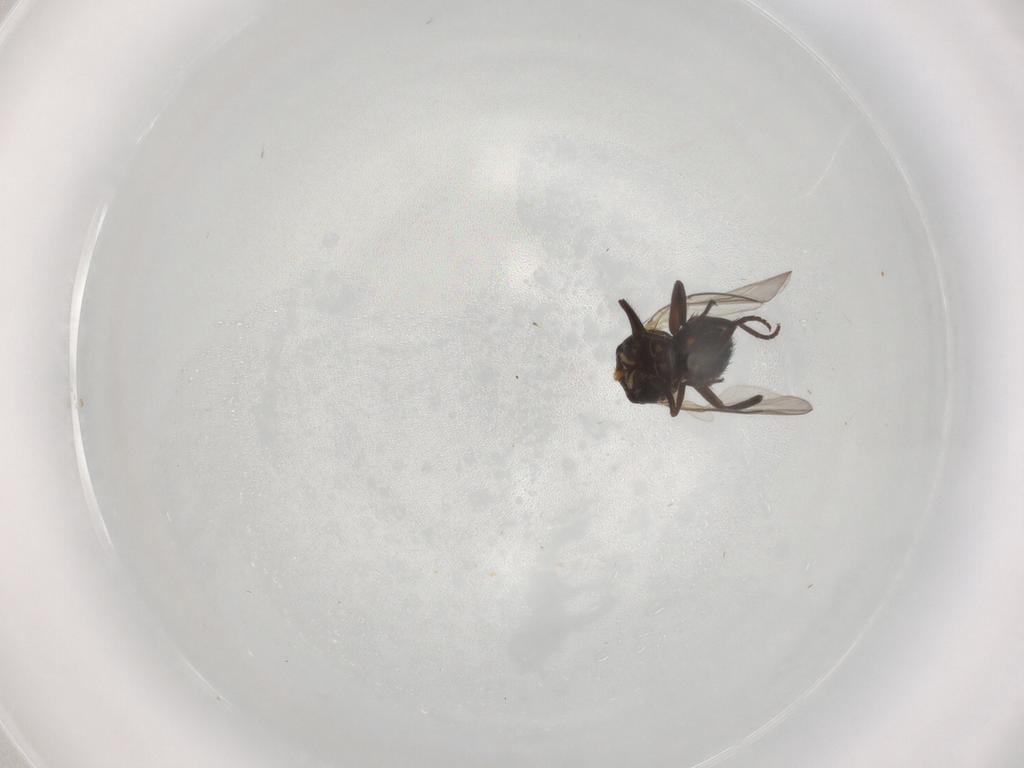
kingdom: Animalia
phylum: Arthropoda
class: Insecta
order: Diptera
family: Agromyzidae
